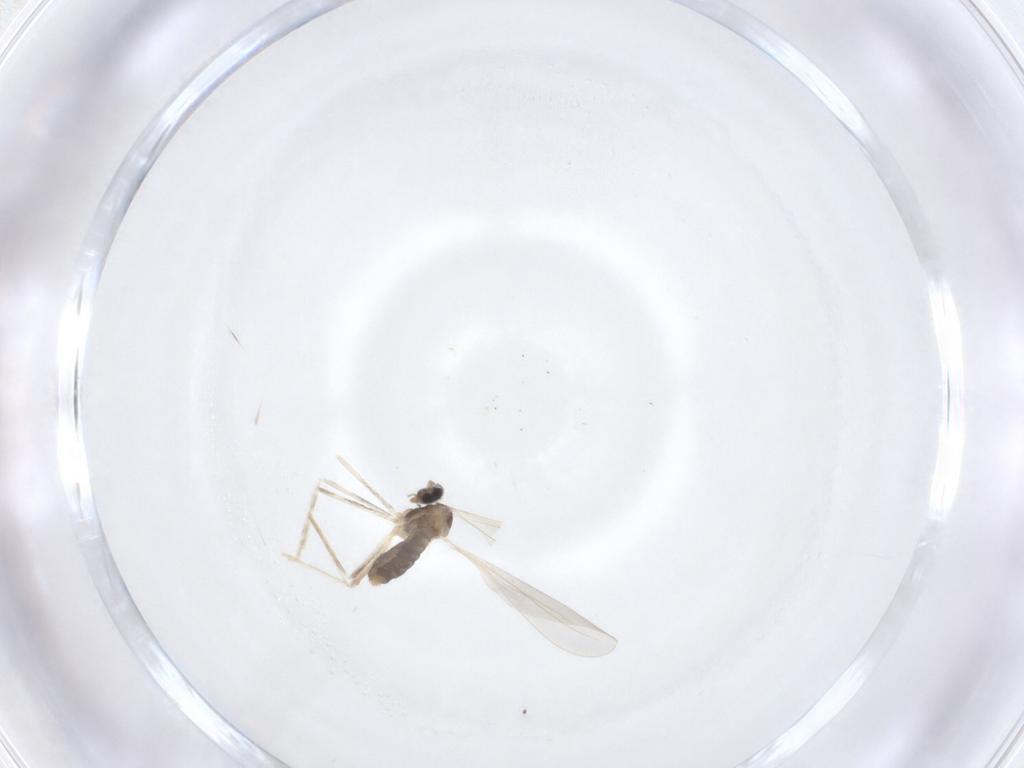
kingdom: Animalia
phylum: Arthropoda
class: Insecta
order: Diptera
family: Cecidomyiidae
